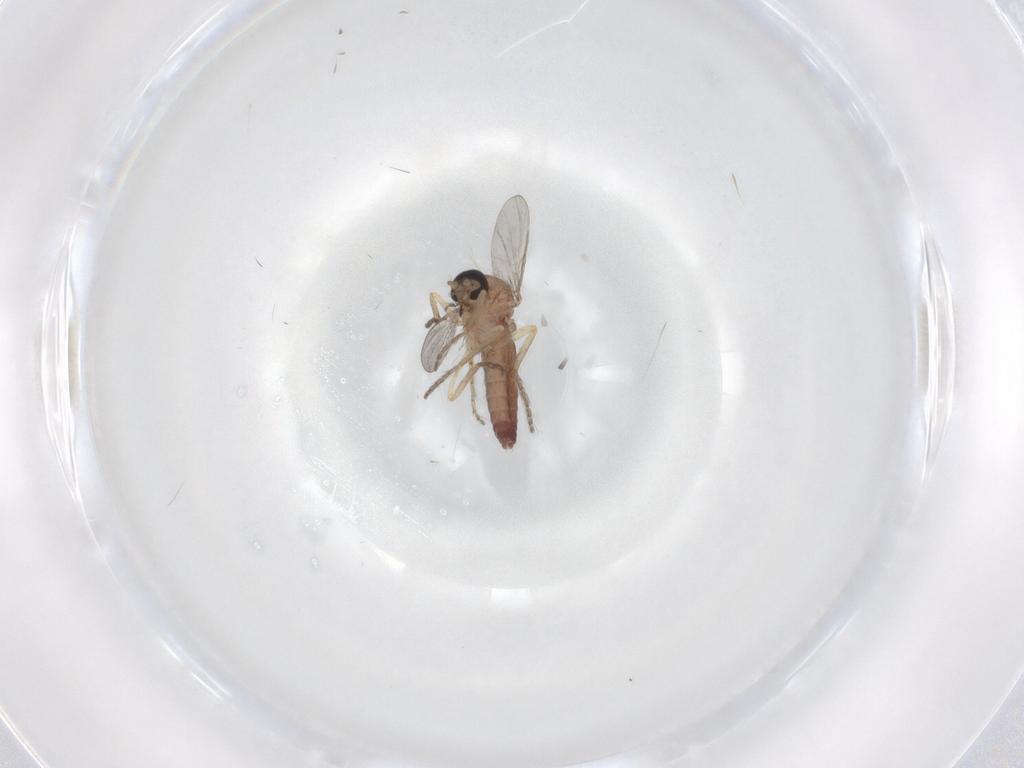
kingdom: Animalia
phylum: Arthropoda
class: Insecta
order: Diptera
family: Ceratopogonidae
